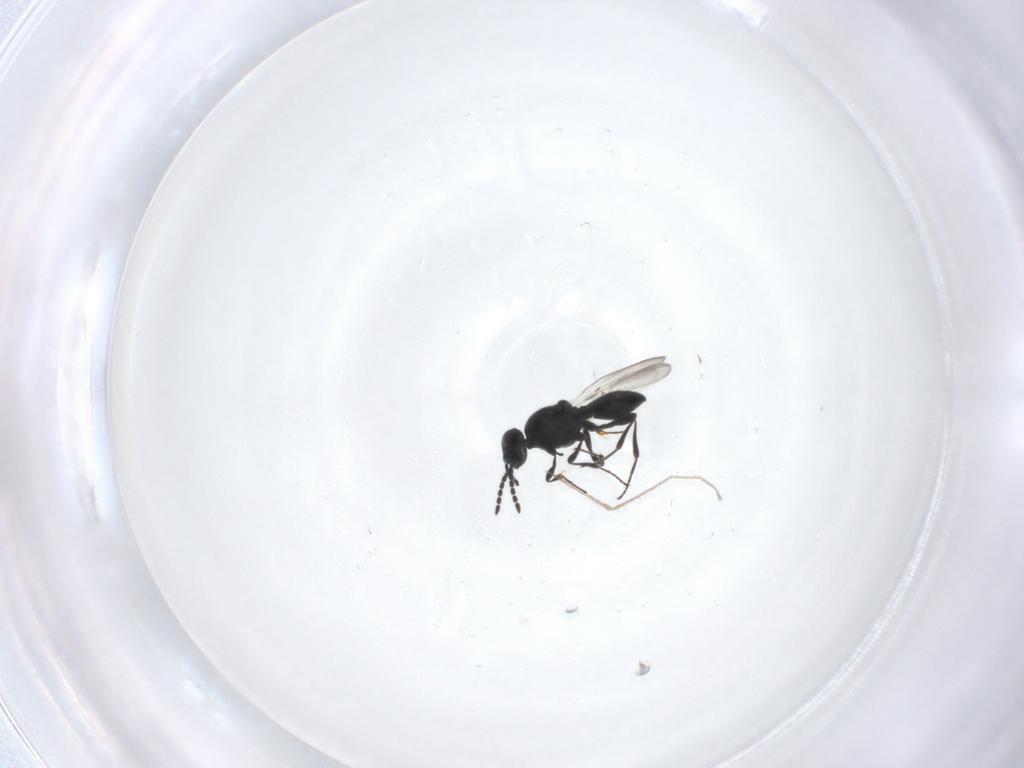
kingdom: Animalia
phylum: Arthropoda
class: Insecta
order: Hymenoptera
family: Platygastridae
